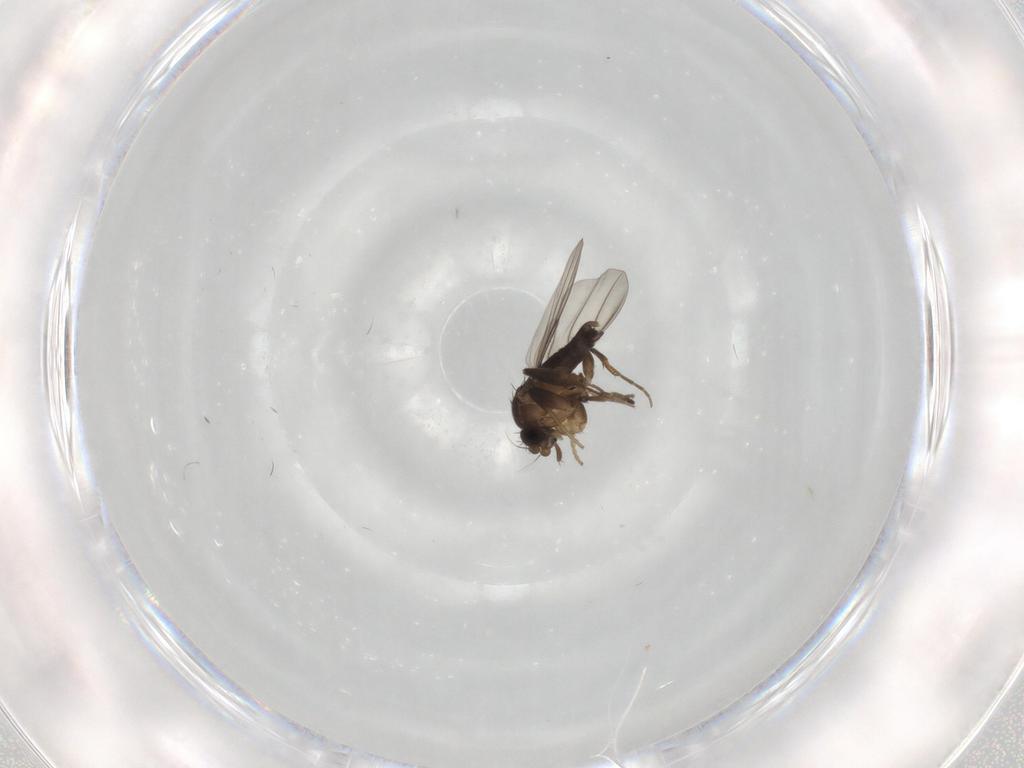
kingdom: Animalia
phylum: Arthropoda
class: Insecta
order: Diptera
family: Phoridae
